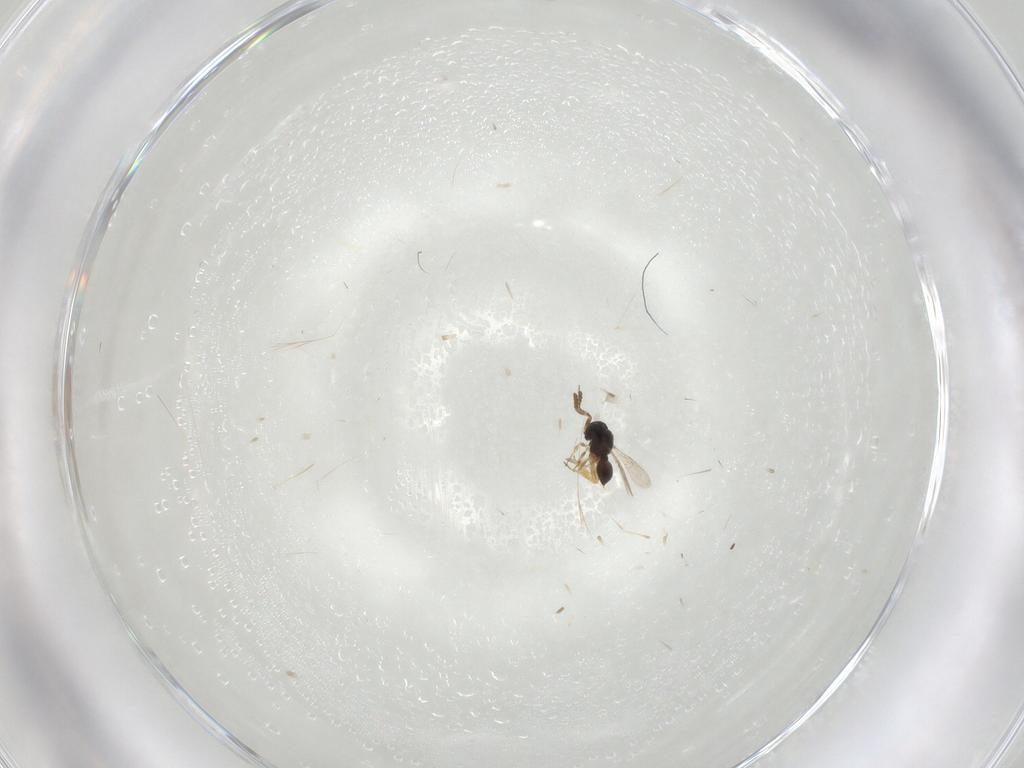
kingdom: Animalia
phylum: Arthropoda
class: Insecta
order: Hymenoptera
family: Scelionidae
